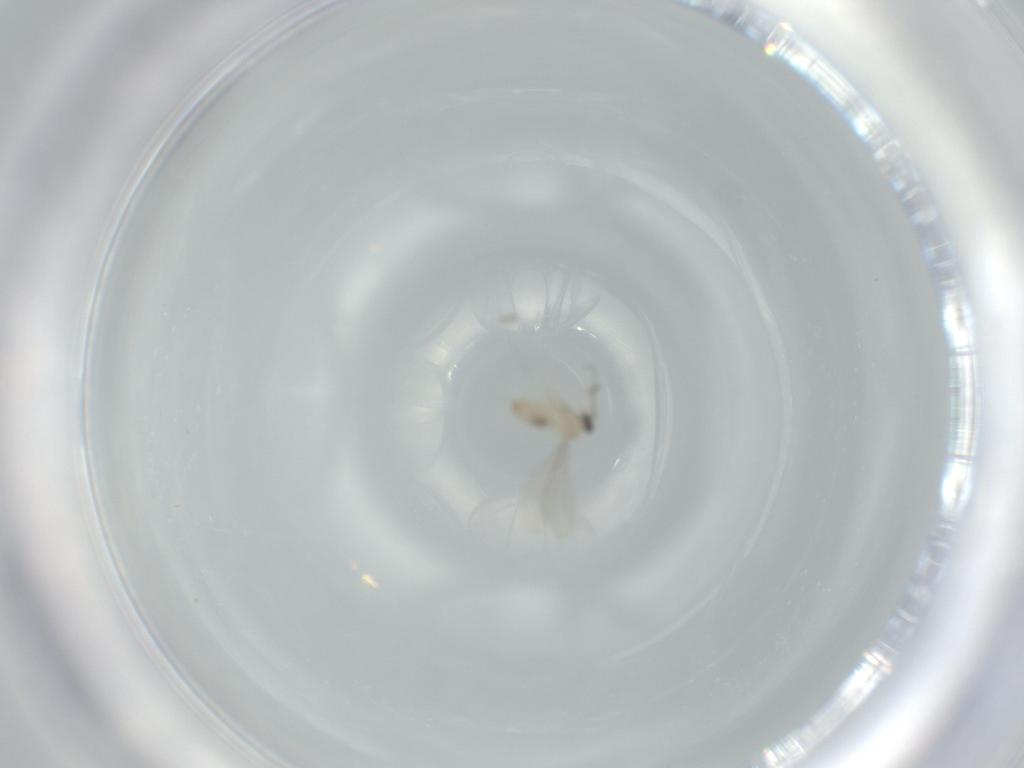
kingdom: Animalia
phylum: Arthropoda
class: Insecta
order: Diptera
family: Cecidomyiidae
